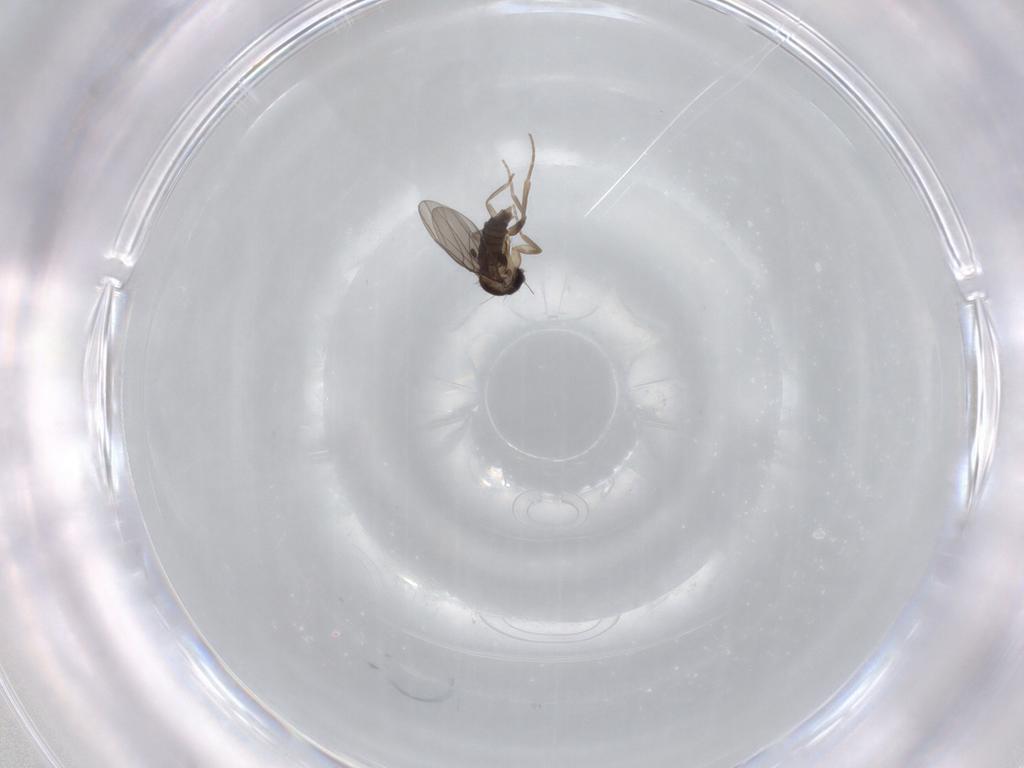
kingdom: Animalia
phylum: Arthropoda
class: Insecta
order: Diptera
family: Phoridae
